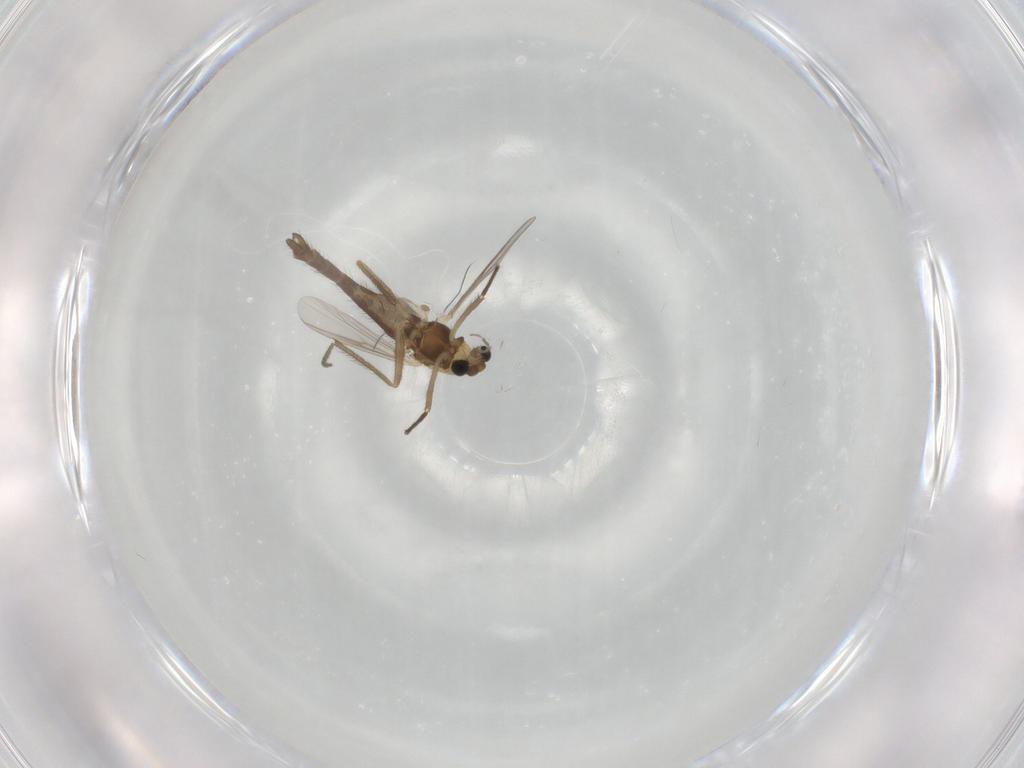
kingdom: Animalia
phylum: Arthropoda
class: Insecta
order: Diptera
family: Chironomidae
